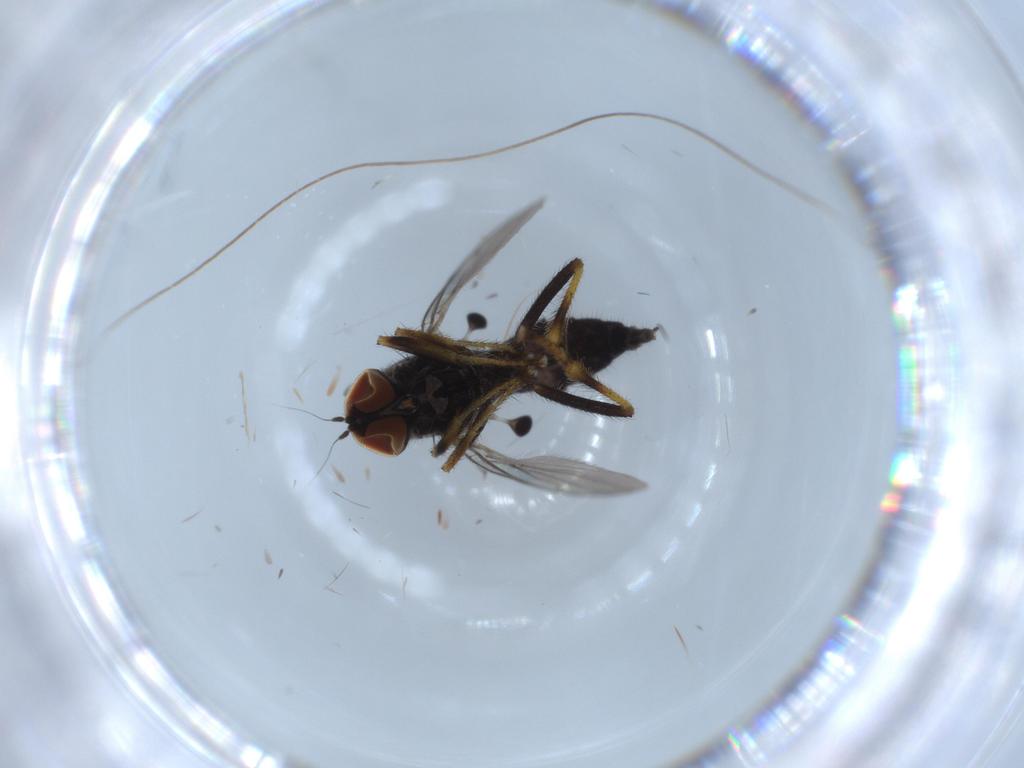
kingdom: Animalia
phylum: Arthropoda
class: Insecta
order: Diptera
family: Hybotidae
